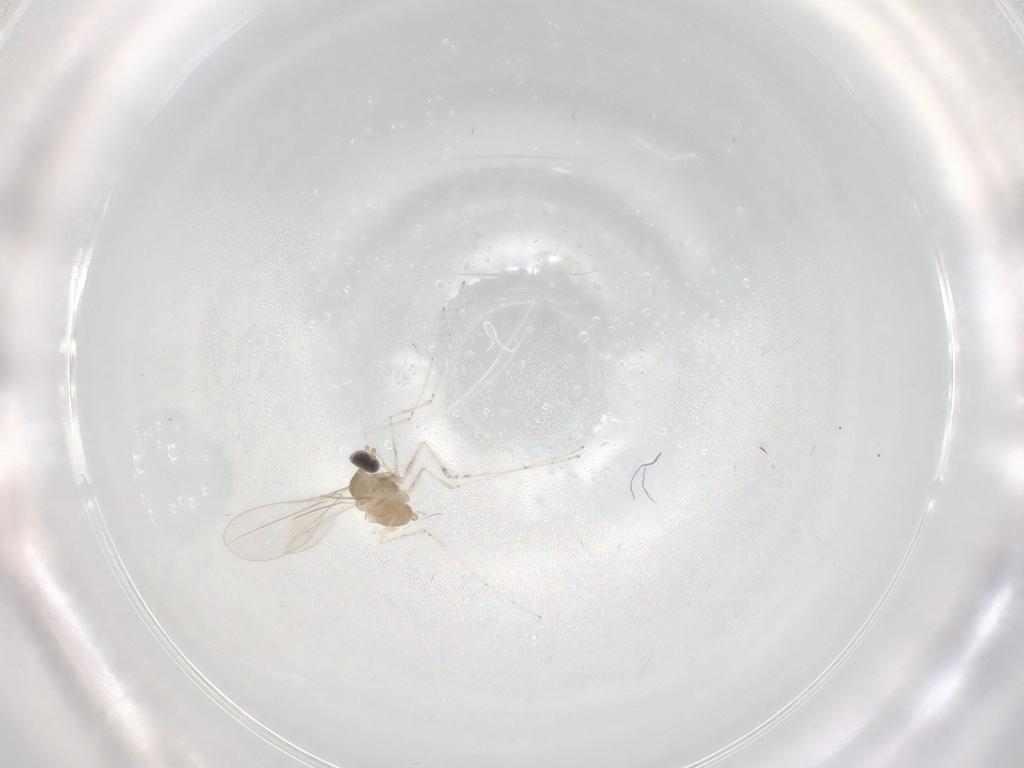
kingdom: Animalia
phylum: Arthropoda
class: Insecta
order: Diptera
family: Cecidomyiidae
